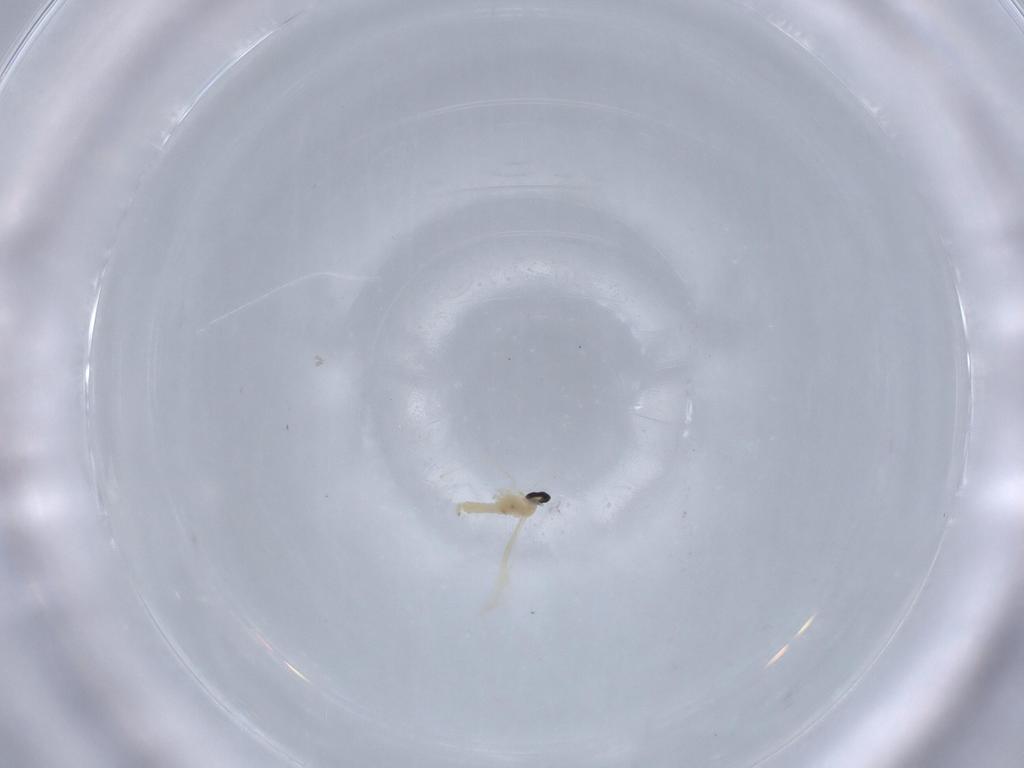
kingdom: Animalia
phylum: Arthropoda
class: Insecta
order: Diptera
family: Cecidomyiidae
